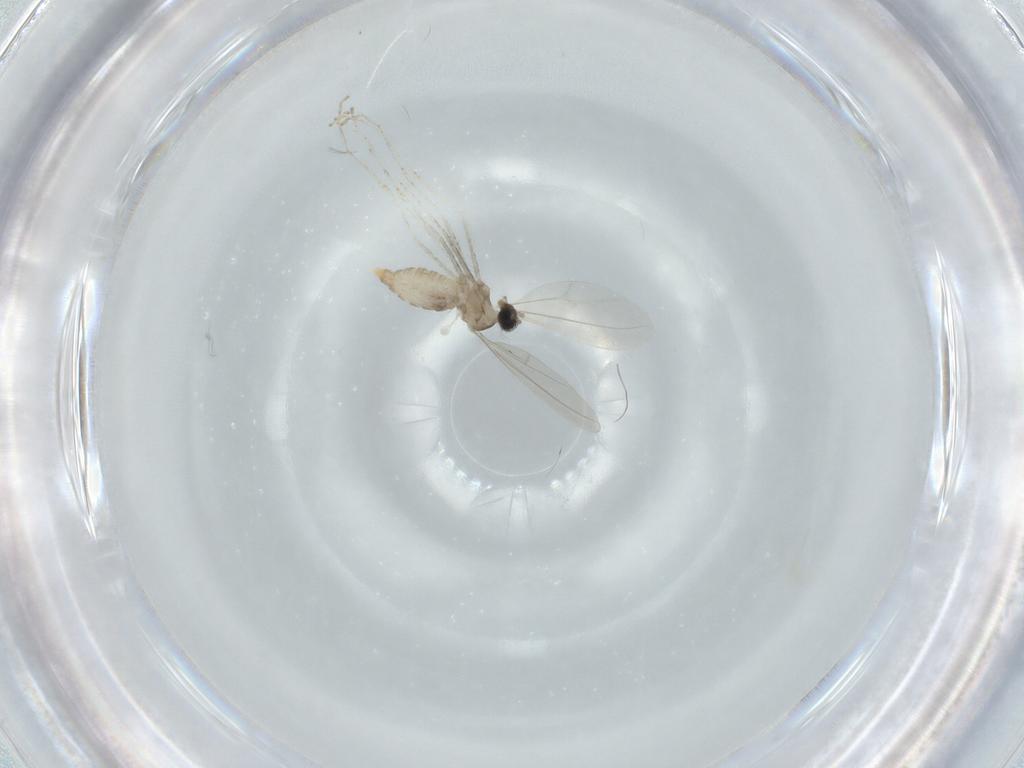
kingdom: Animalia
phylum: Arthropoda
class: Insecta
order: Diptera
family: Cecidomyiidae
